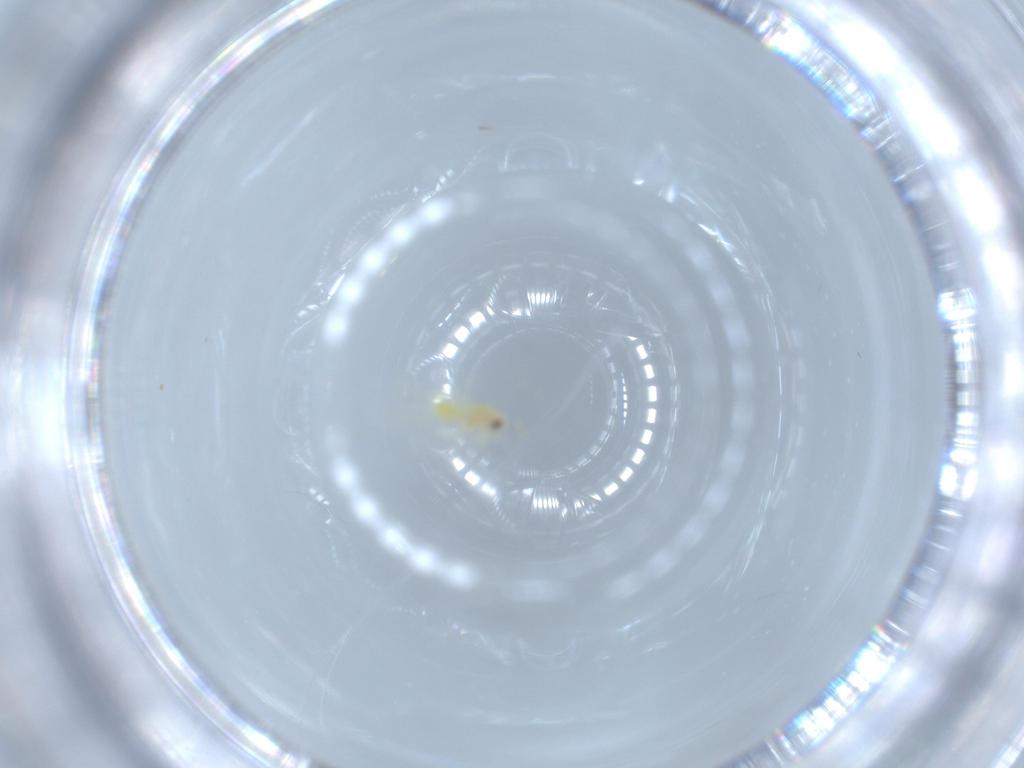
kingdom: Animalia
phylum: Arthropoda
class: Insecta
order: Hemiptera
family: Aleyrodidae
